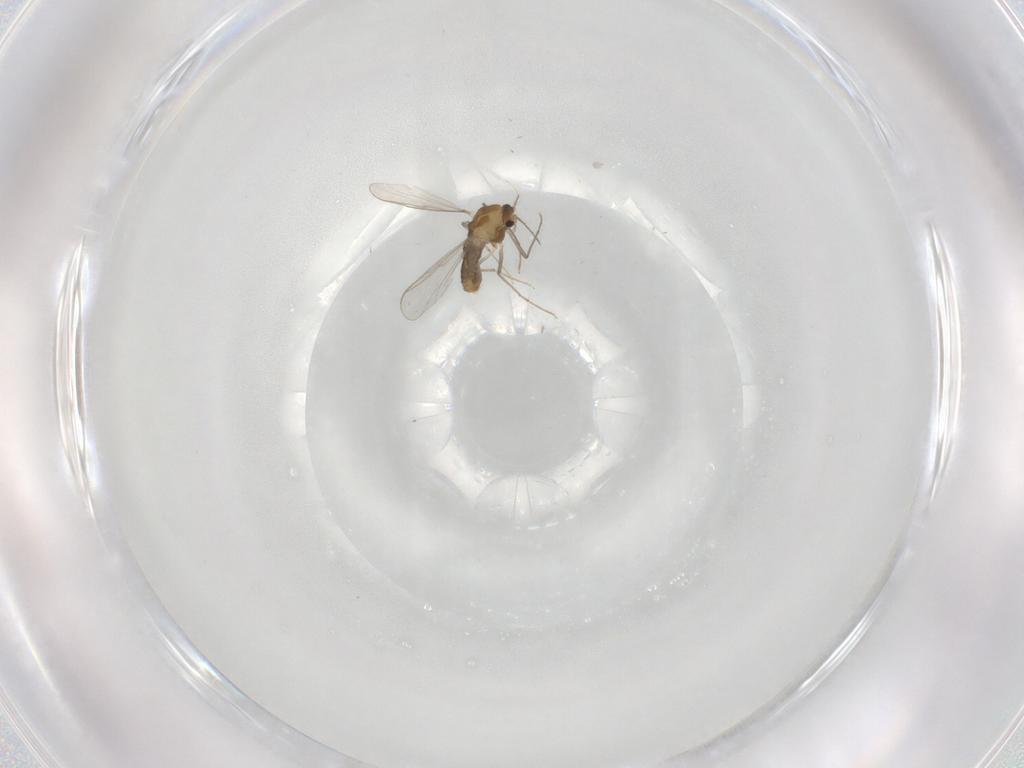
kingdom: Animalia
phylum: Arthropoda
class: Insecta
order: Diptera
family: Chironomidae
